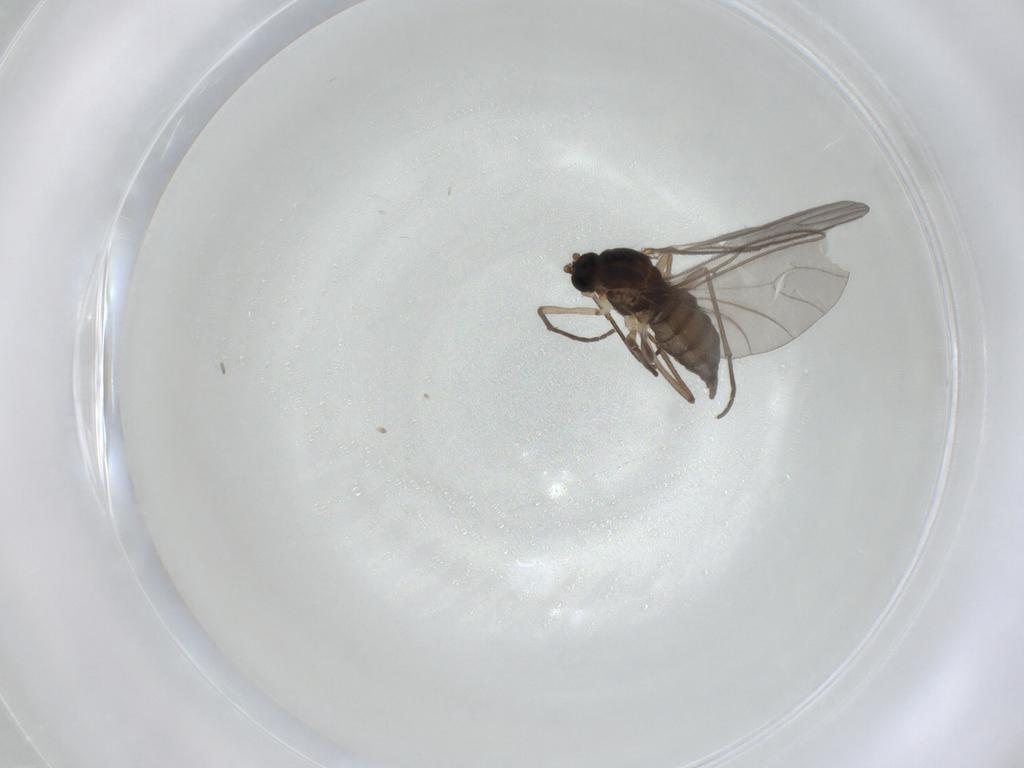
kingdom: Animalia
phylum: Arthropoda
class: Insecta
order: Diptera
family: Sciaridae
